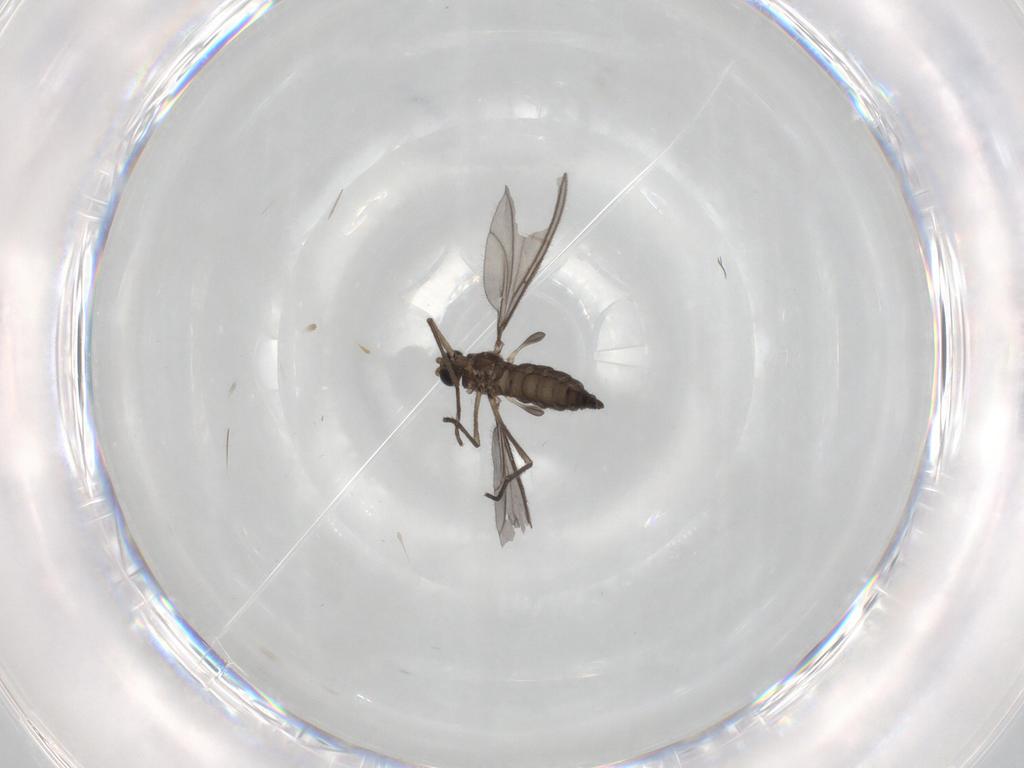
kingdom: Animalia
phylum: Arthropoda
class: Insecta
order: Diptera
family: Sciaridae
